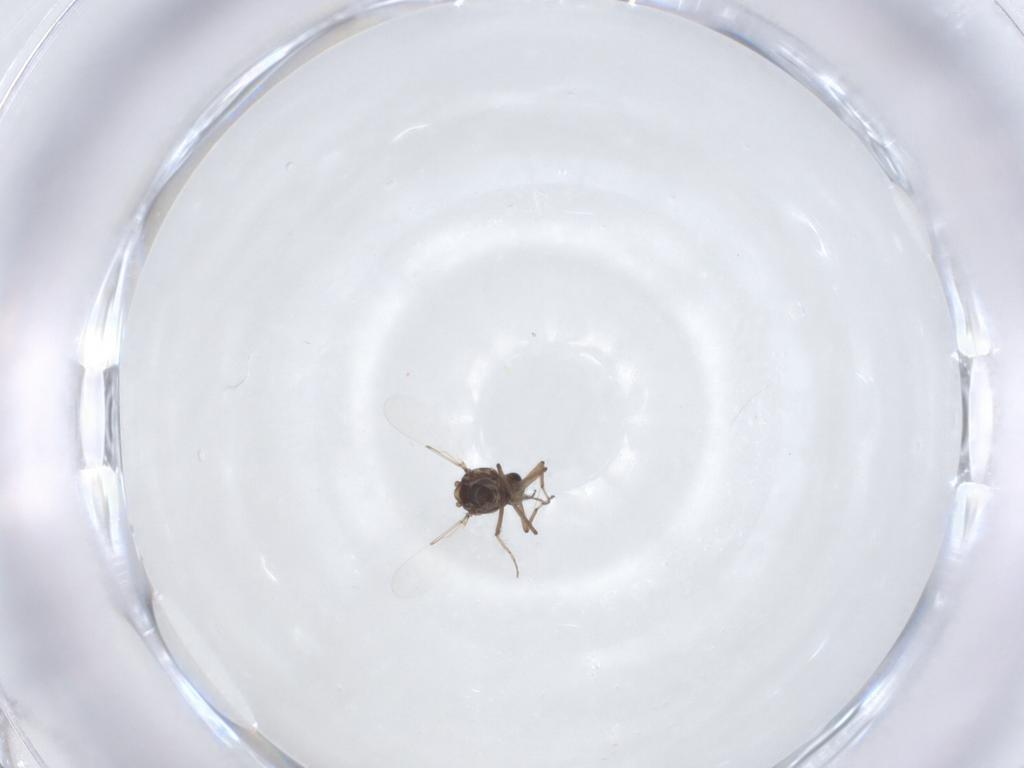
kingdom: Animalia
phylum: Arthropoda
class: Insecta
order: Diptera
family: Ceratopogonidae
